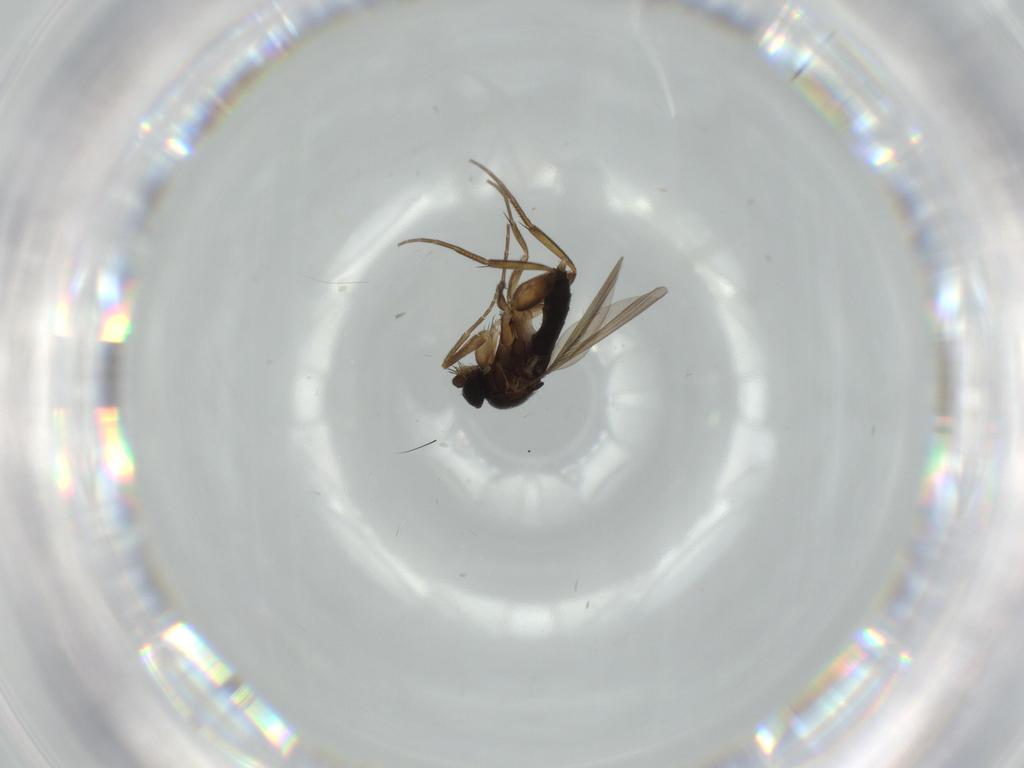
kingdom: Animalia
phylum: Arthropoda
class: Insecta
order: Diptera
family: Phoridae
